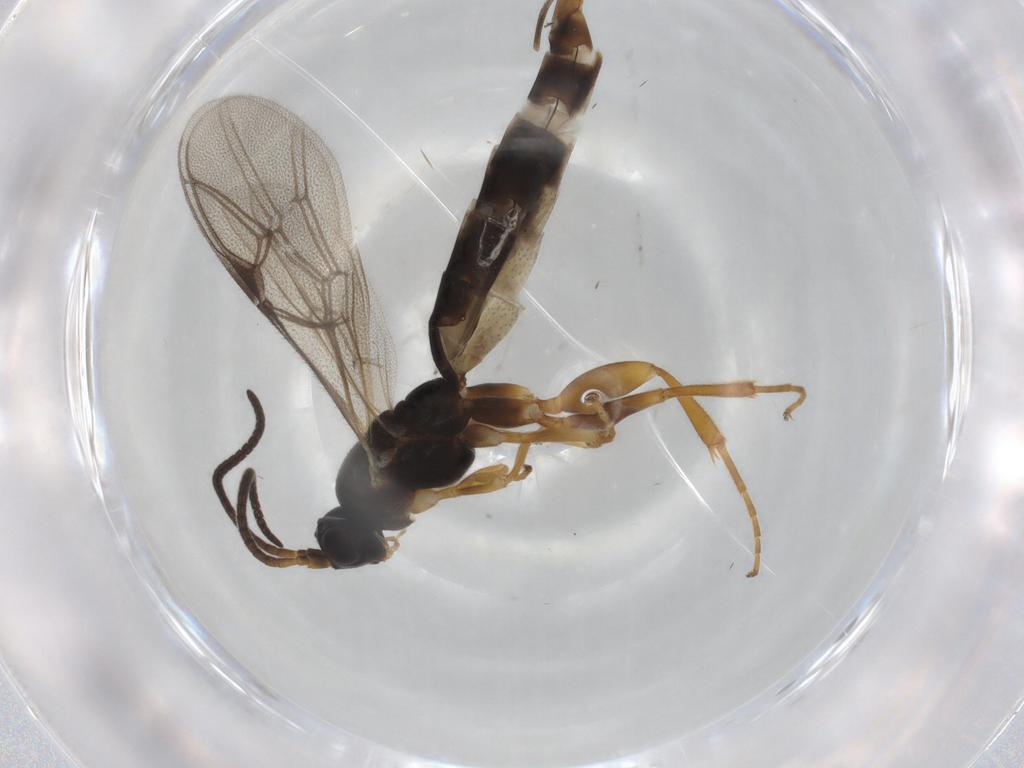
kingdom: Animalia
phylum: Arthropoda
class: Insecta
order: Hymenoptera
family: Ichneumonidae
